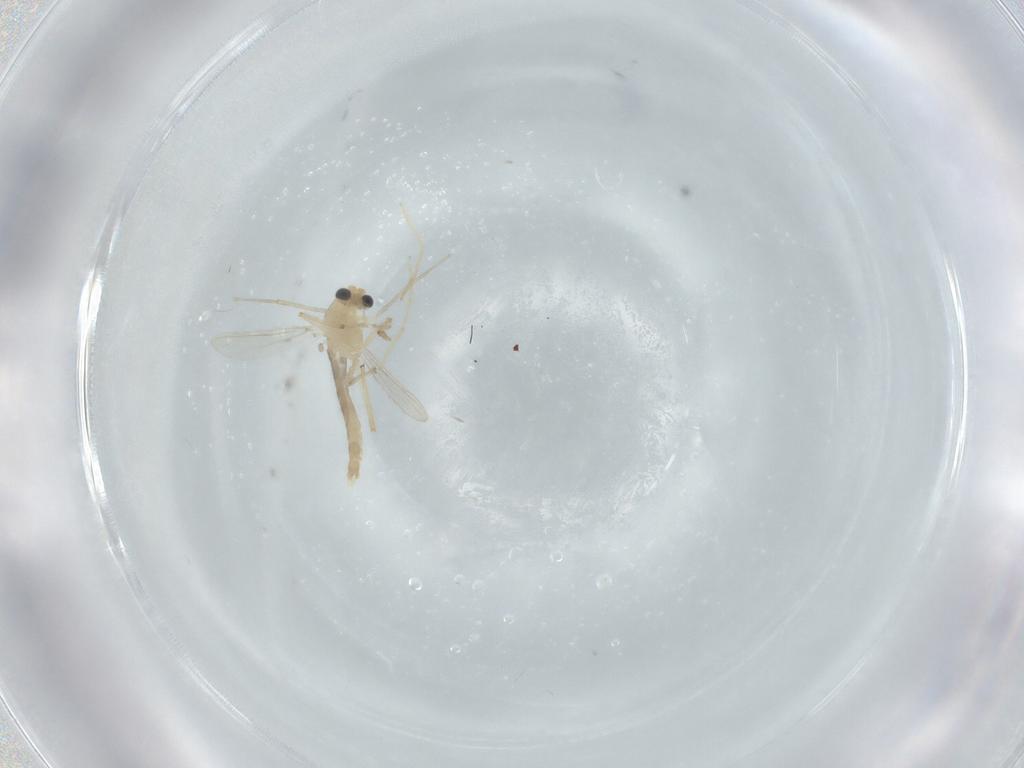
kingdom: Animalia
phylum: Arthropoda
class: Insecta
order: Diptera
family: Chironomidae
